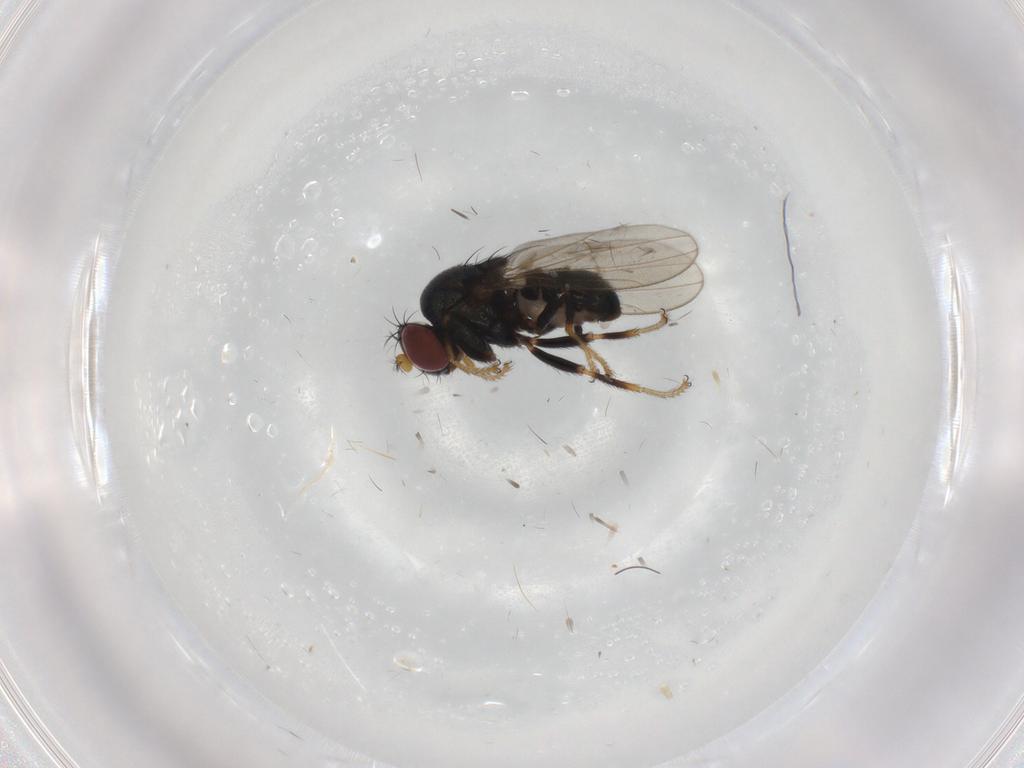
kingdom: Animalia
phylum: Arthropoda
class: Insecta
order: Diptera
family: Ephydridae
